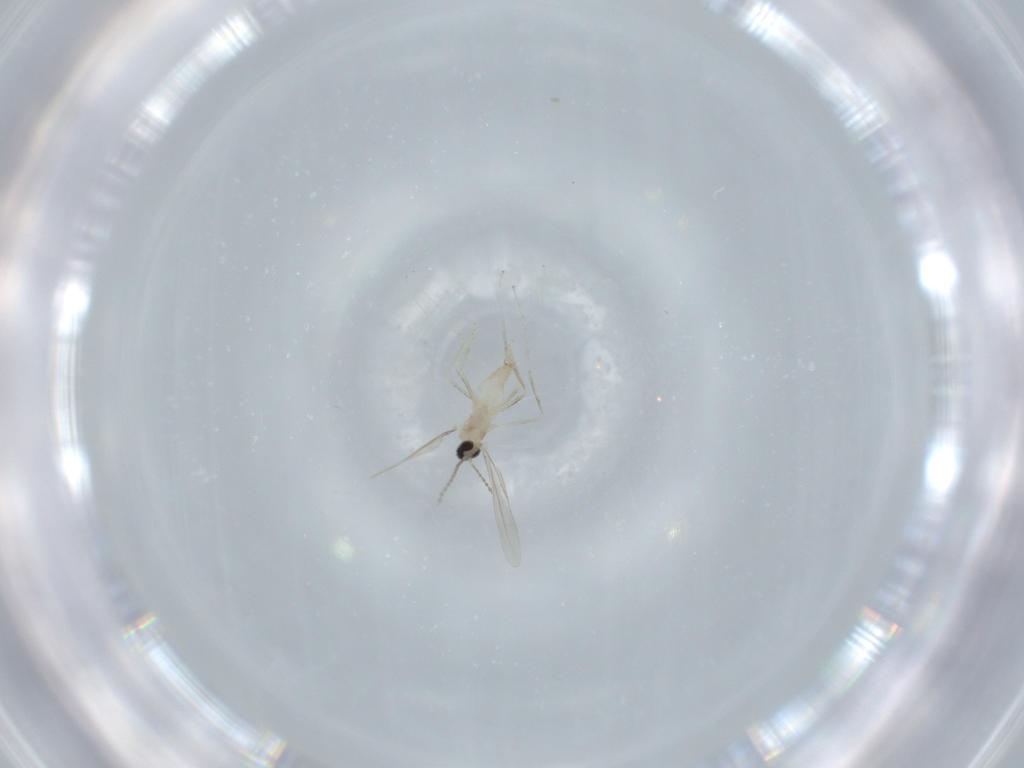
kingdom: Animalia
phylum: Arthropoda
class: Insecta
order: Diptera
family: Cecidomyiidae
